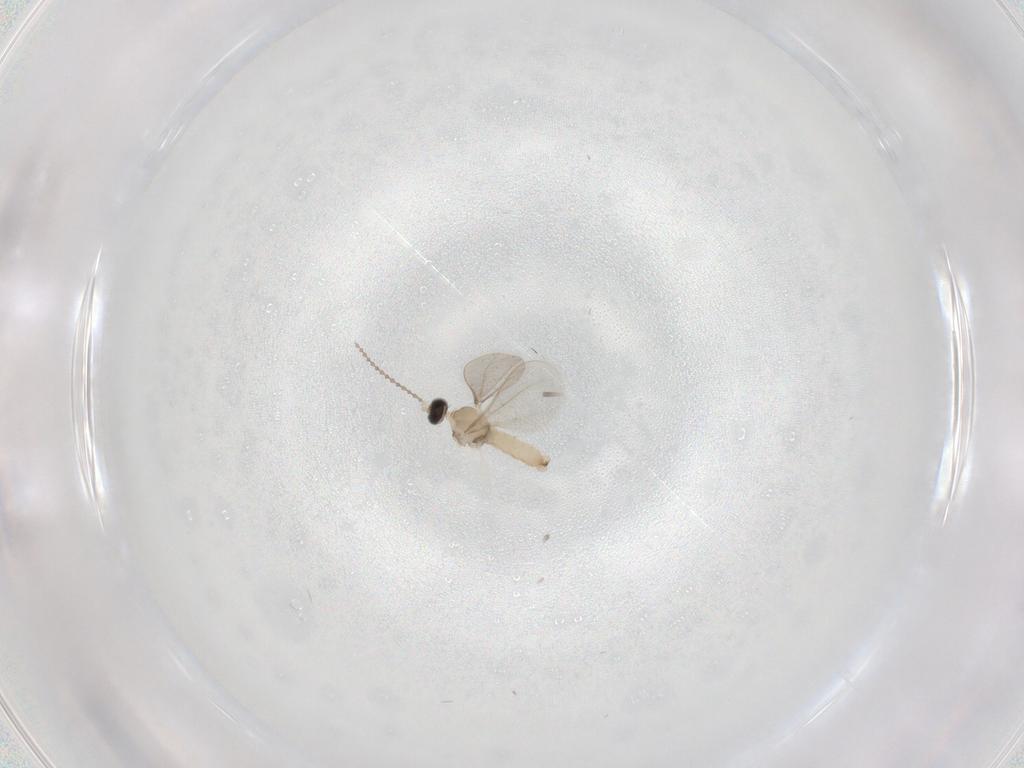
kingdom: Animalia
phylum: Arthropoda
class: Insecta
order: Diptera
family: Cecidomyiidae
